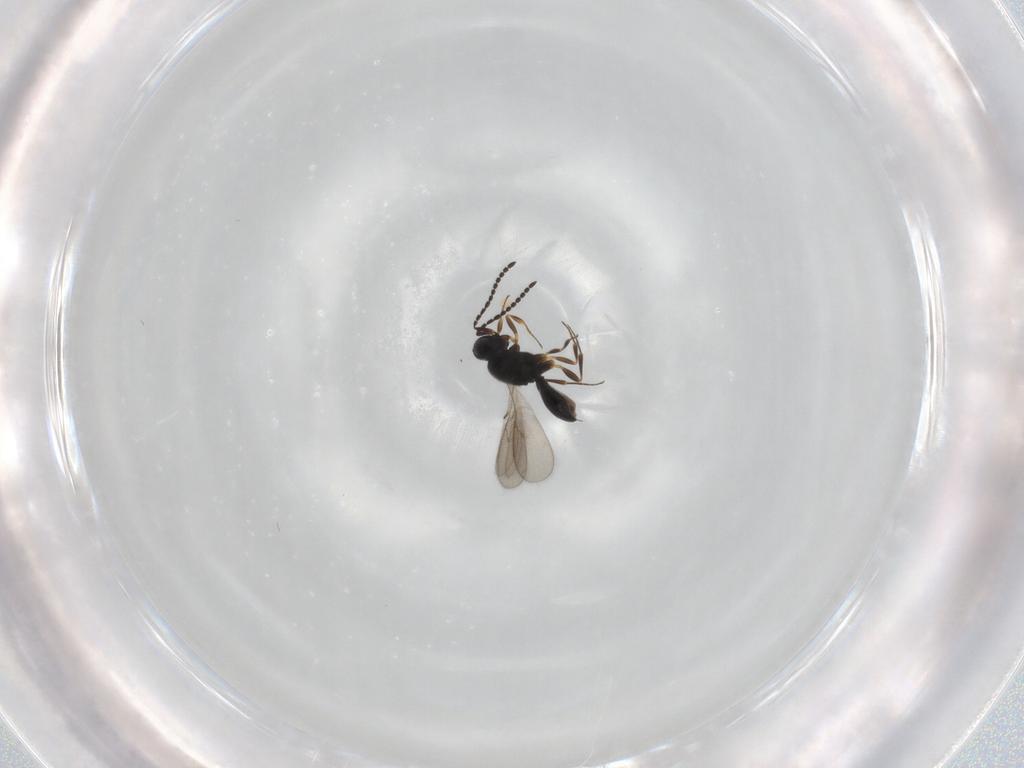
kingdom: Animalia
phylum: Arthropoda
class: Insecta
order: Hymenoptera
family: Scelionidae
